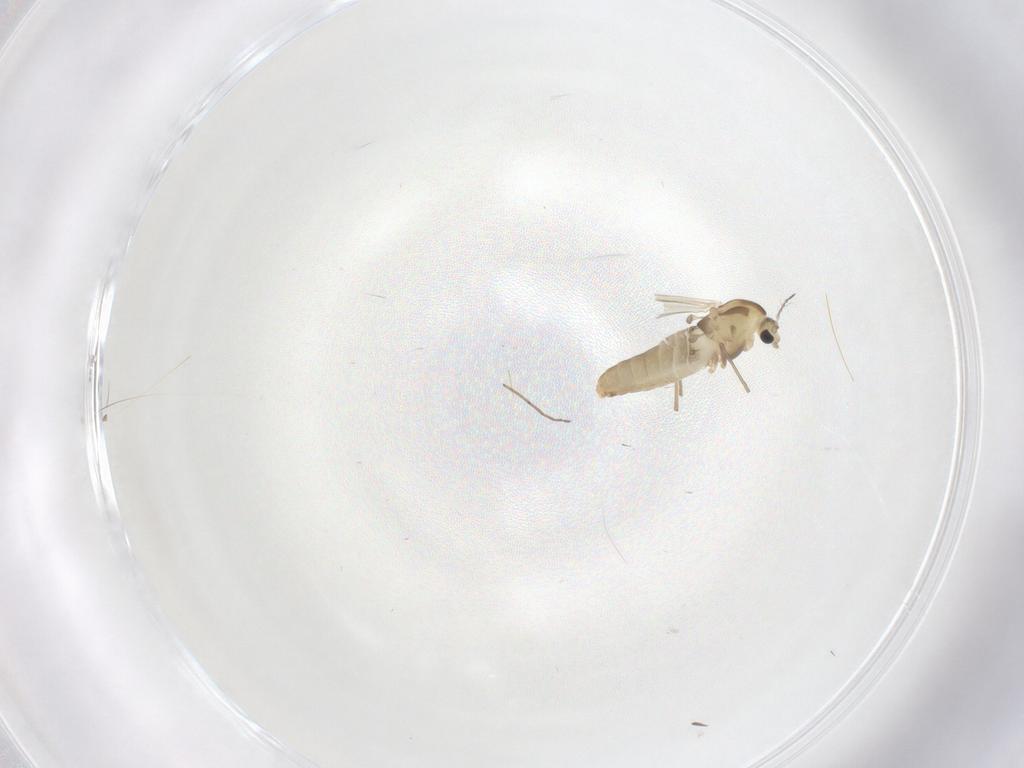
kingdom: Animalia
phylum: Arthropoda
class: Insecta
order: Diptera
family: Chironomidae
